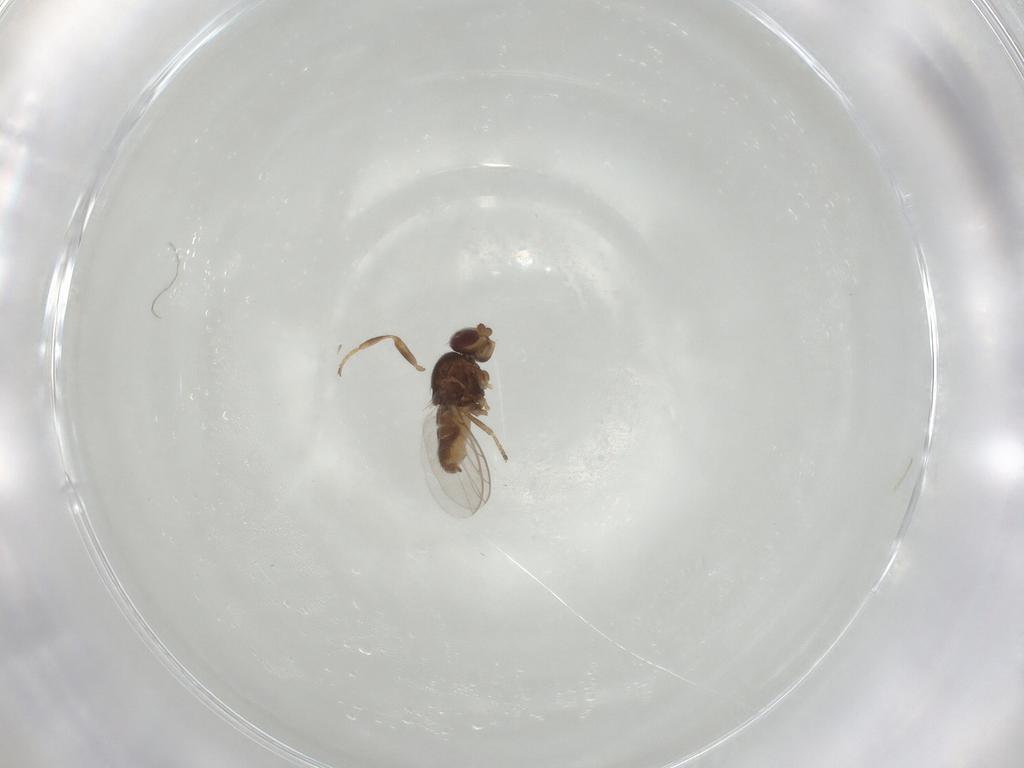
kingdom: Animalia
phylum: Arthropoda
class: Insecta
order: Diptera
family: Chloropidae
